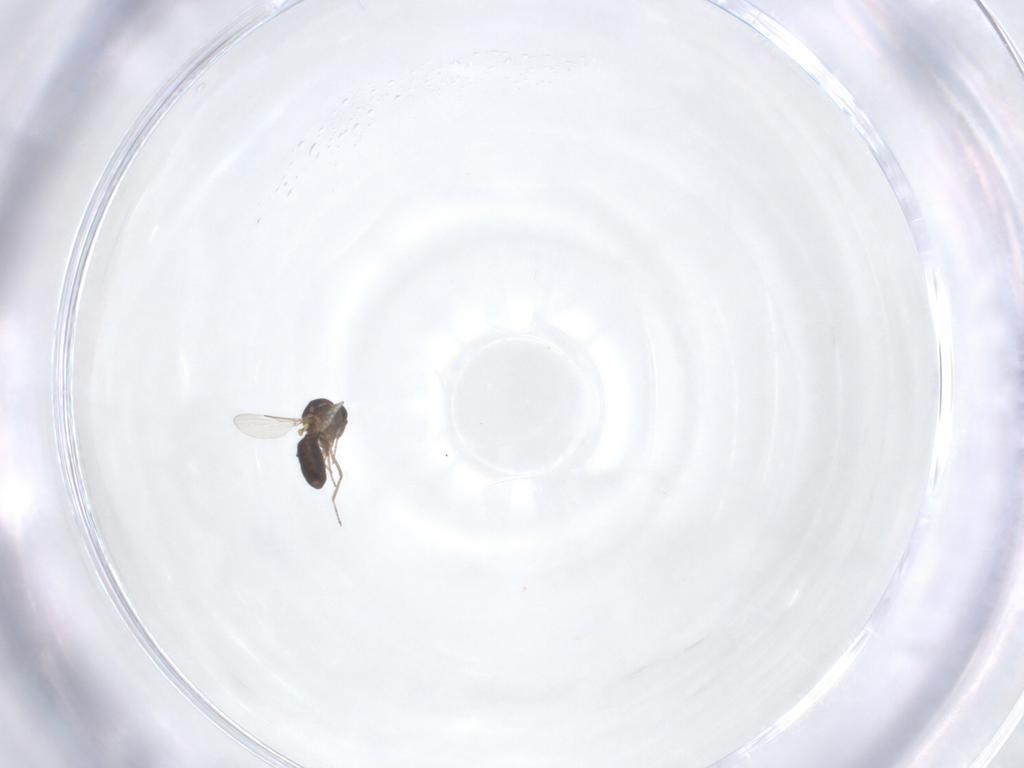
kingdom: Animalia
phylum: Arthropoda
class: Insecta
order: Diptera
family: Ceratopogonidae
